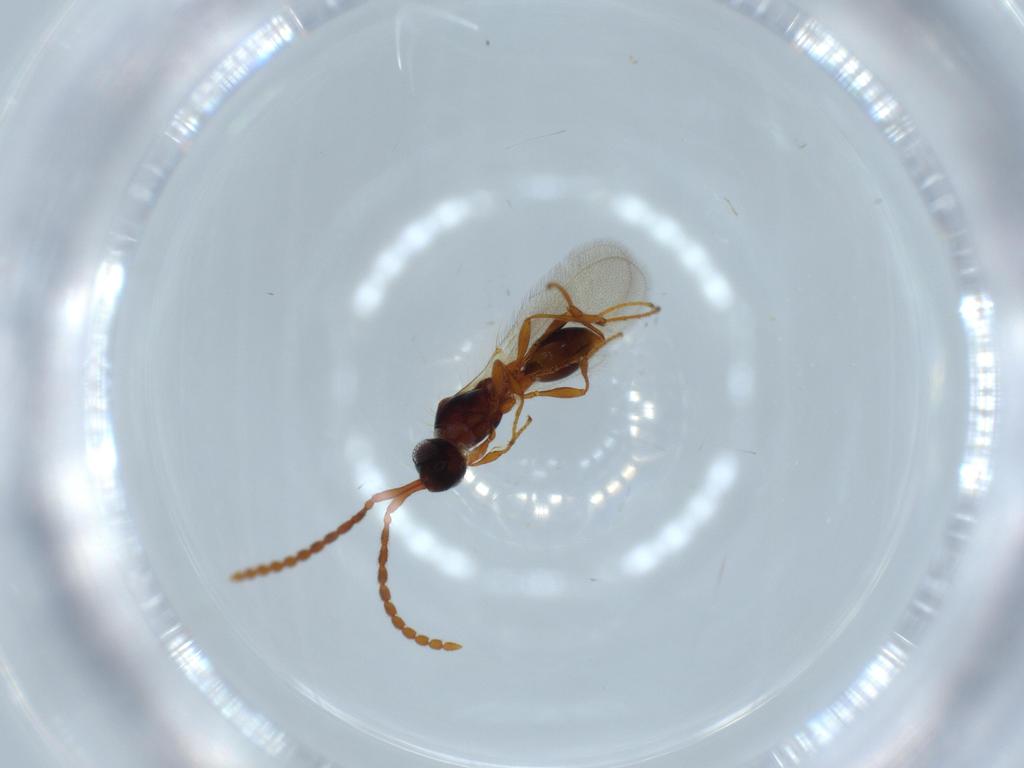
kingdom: Animalia
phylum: Arthropoda
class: Insecta
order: Hymenoptera
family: Diapriidae
